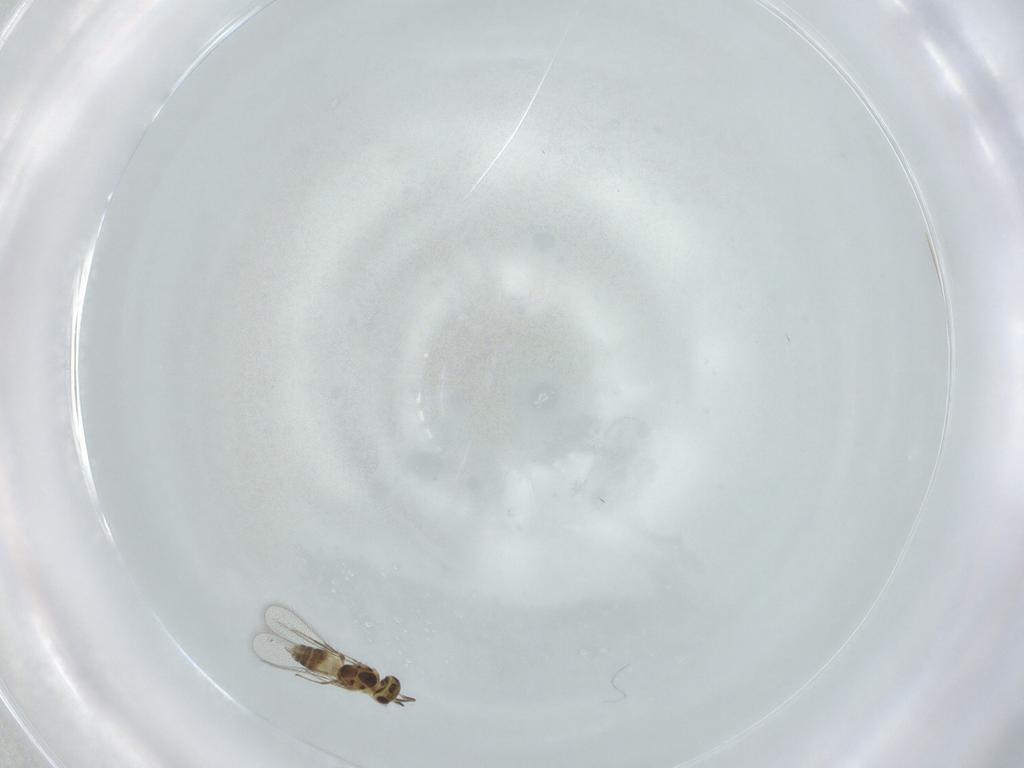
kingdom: Animalia
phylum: Arthropoda
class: Insecta
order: Hymenoptera
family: Mymaridae
